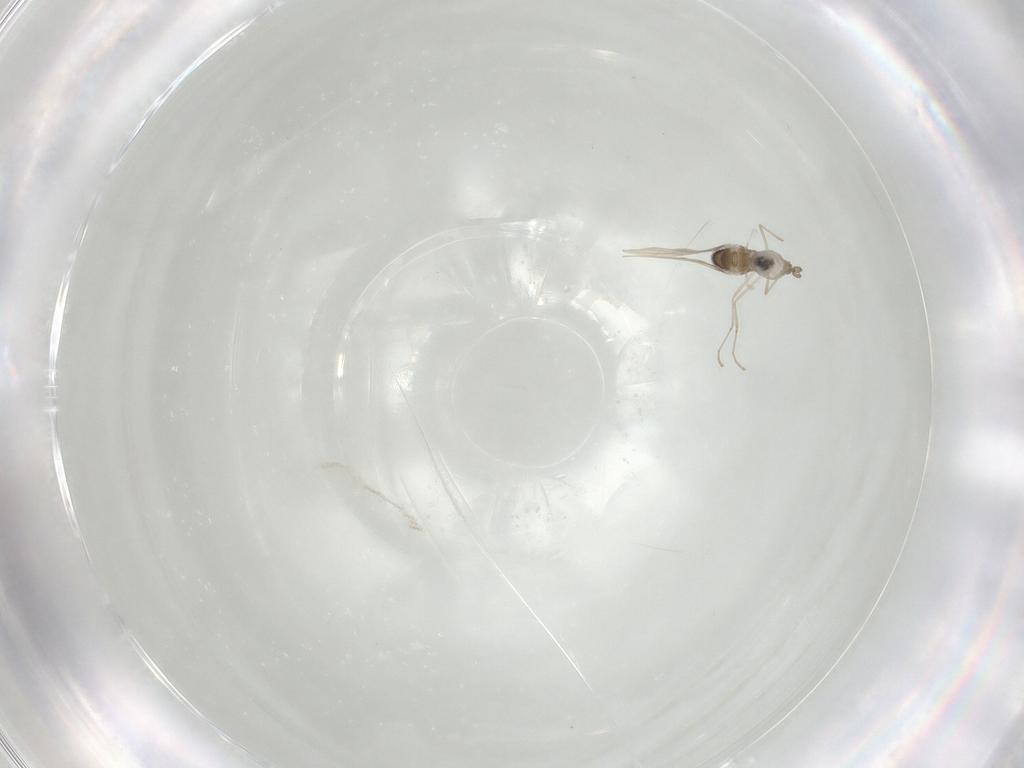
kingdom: Animalia
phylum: Arthropoda
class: Insecta
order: Diptera
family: Cecidomyiidae
